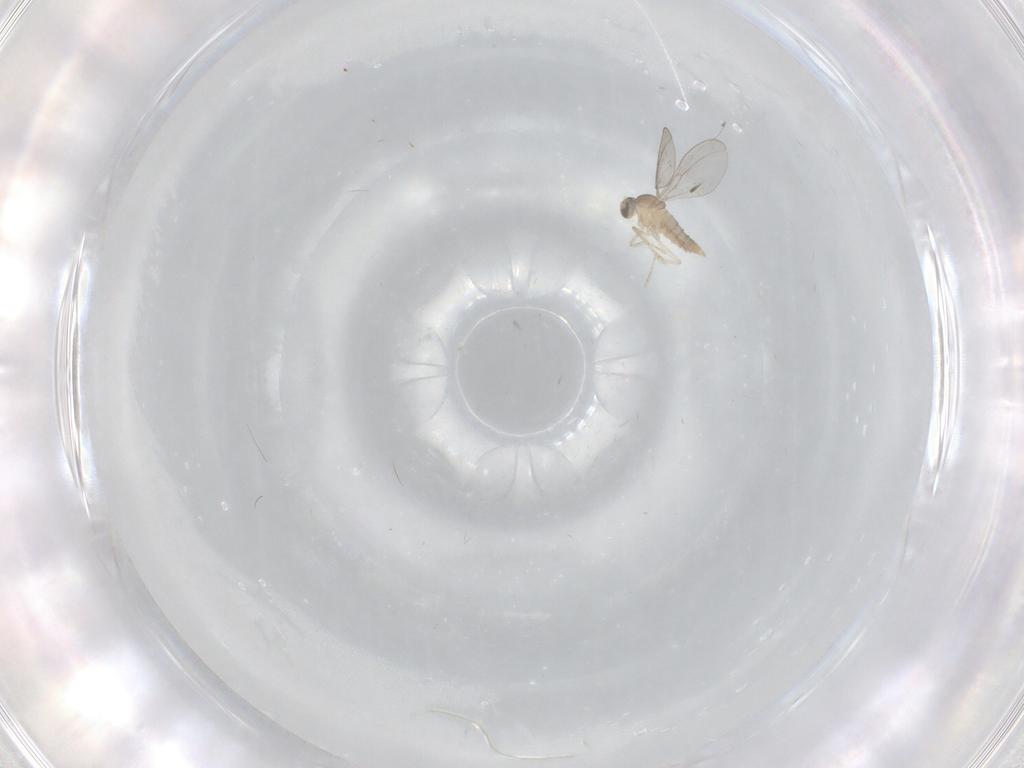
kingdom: Animalia
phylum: Arthropoda
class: Insecta
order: Diptera
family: Cecidomyiidae
